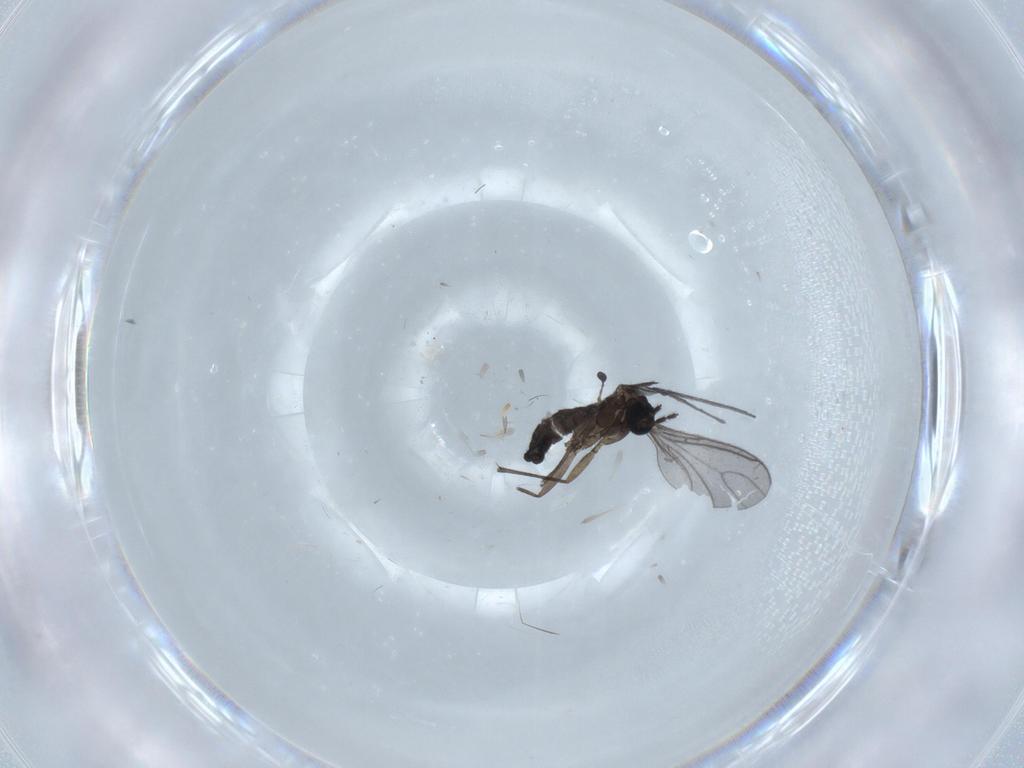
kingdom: Animalia
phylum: Arthropoda
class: Insecta
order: Diptera
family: Sciaridae
